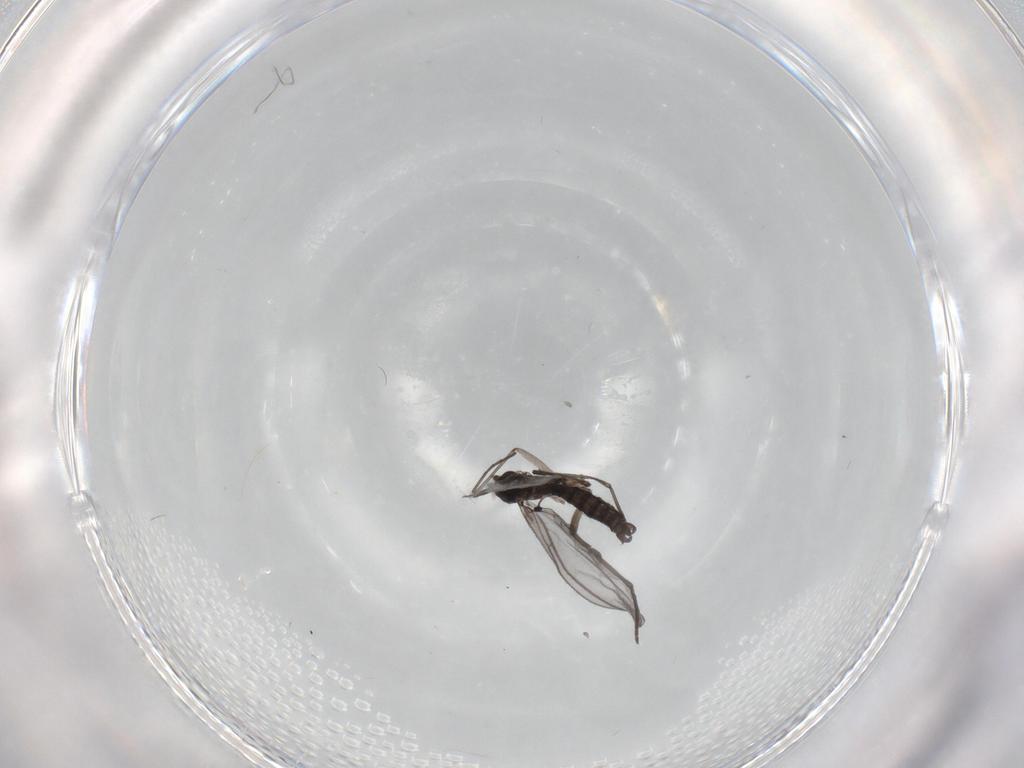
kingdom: Animalia
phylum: Arthropoda
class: Insecta
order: Diptera
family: Sciaridae
